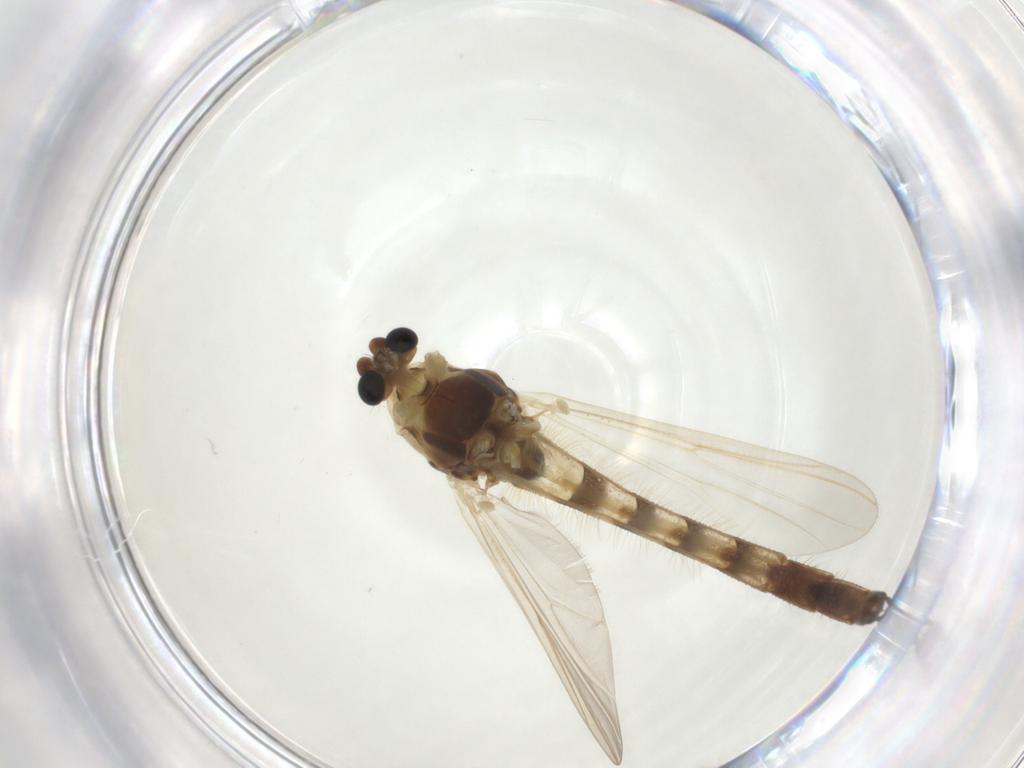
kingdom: Animalia
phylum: Arthropoda
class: Insecta
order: Diptera
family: Chironomidae
